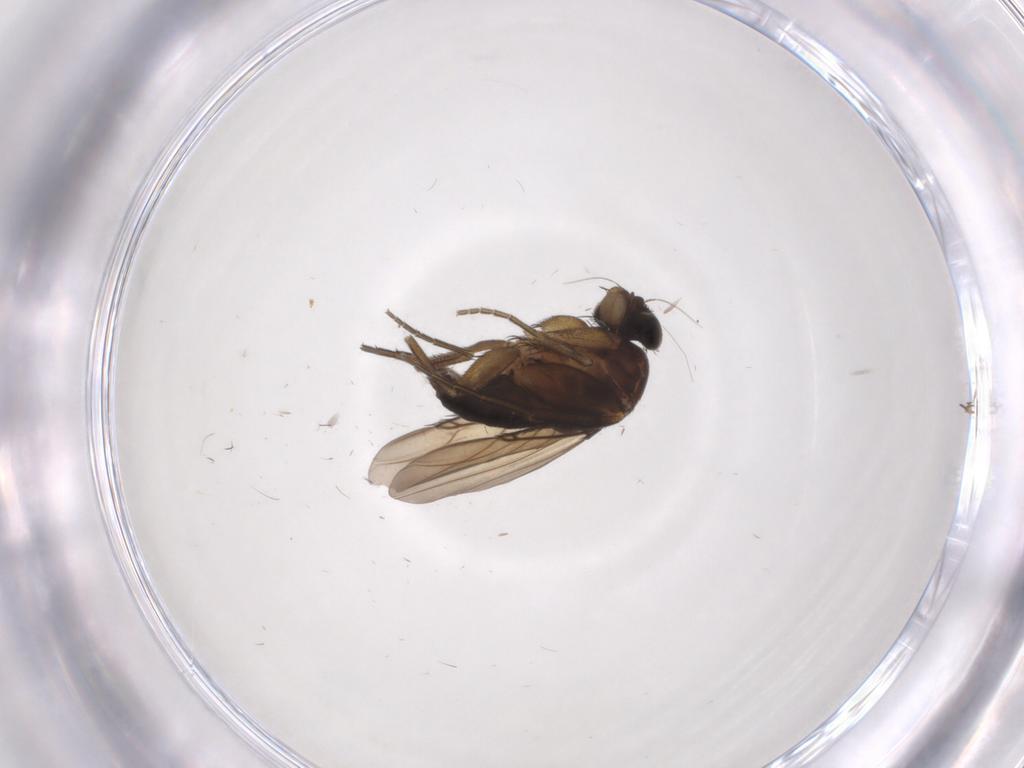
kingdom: Animalia
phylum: Arthropoda
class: Insecta
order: Diptera
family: Phoridae
